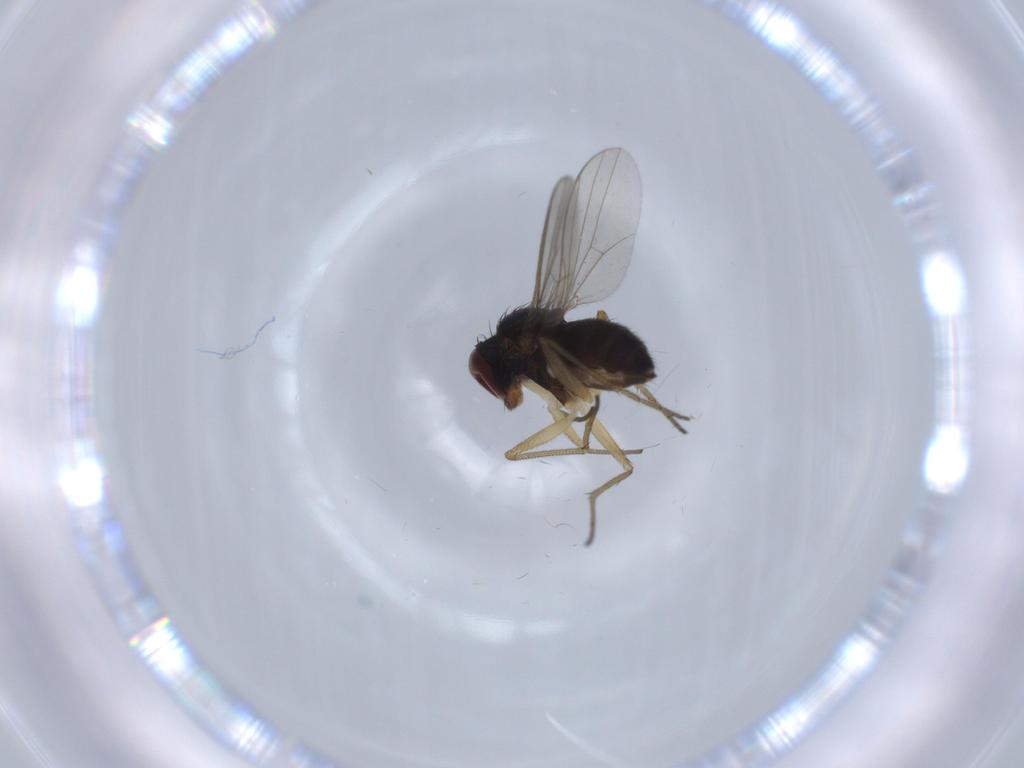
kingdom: Animalia
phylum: Arthropoda
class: Insecta
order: Diptera
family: Dolichopodidae
